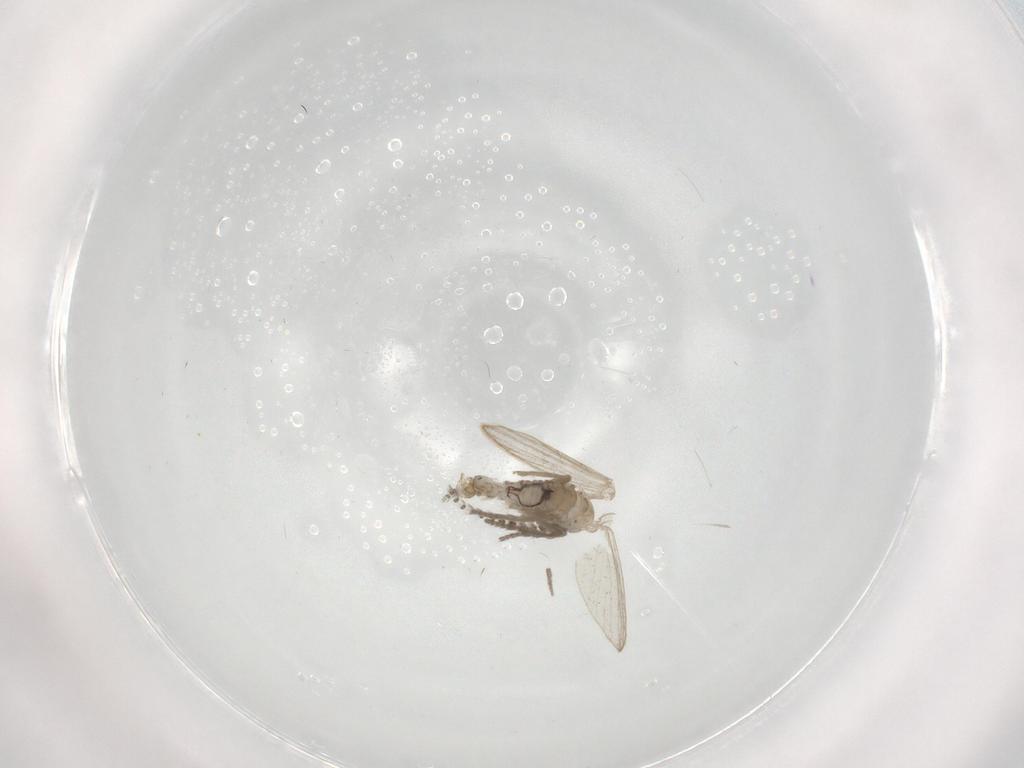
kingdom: Animalia
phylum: Arthropoda
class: Insecta
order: Diptera
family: Psychodidae
